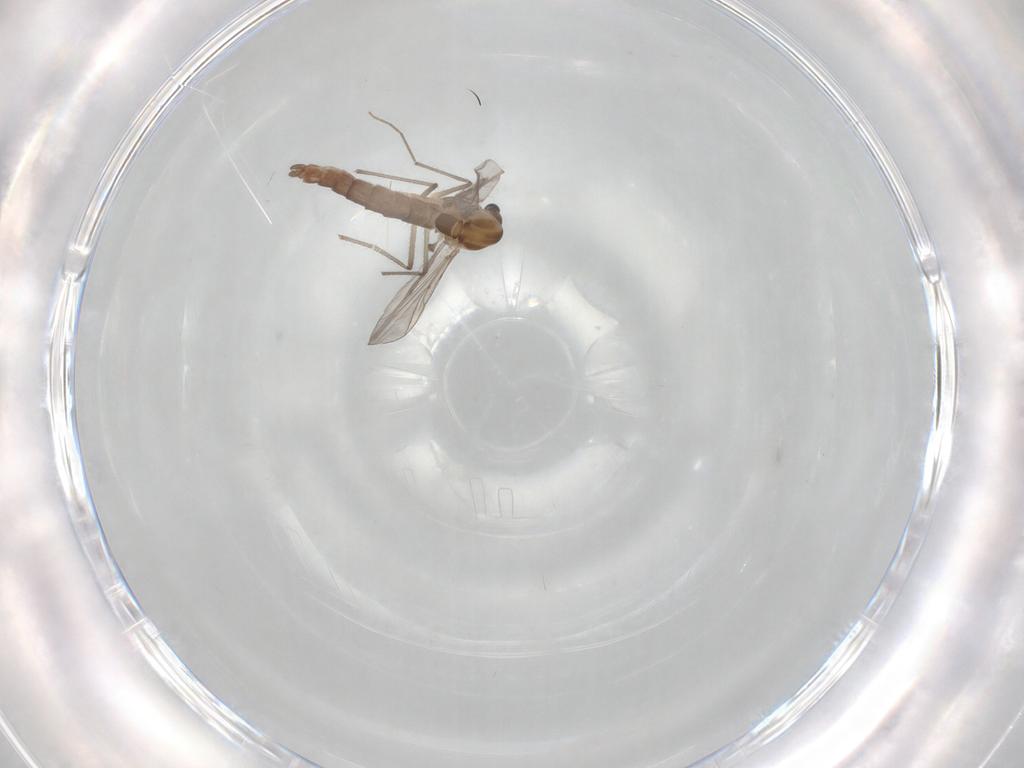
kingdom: Animalia
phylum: Arthropoda
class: Insecta
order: Diptera
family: Chironomidae
